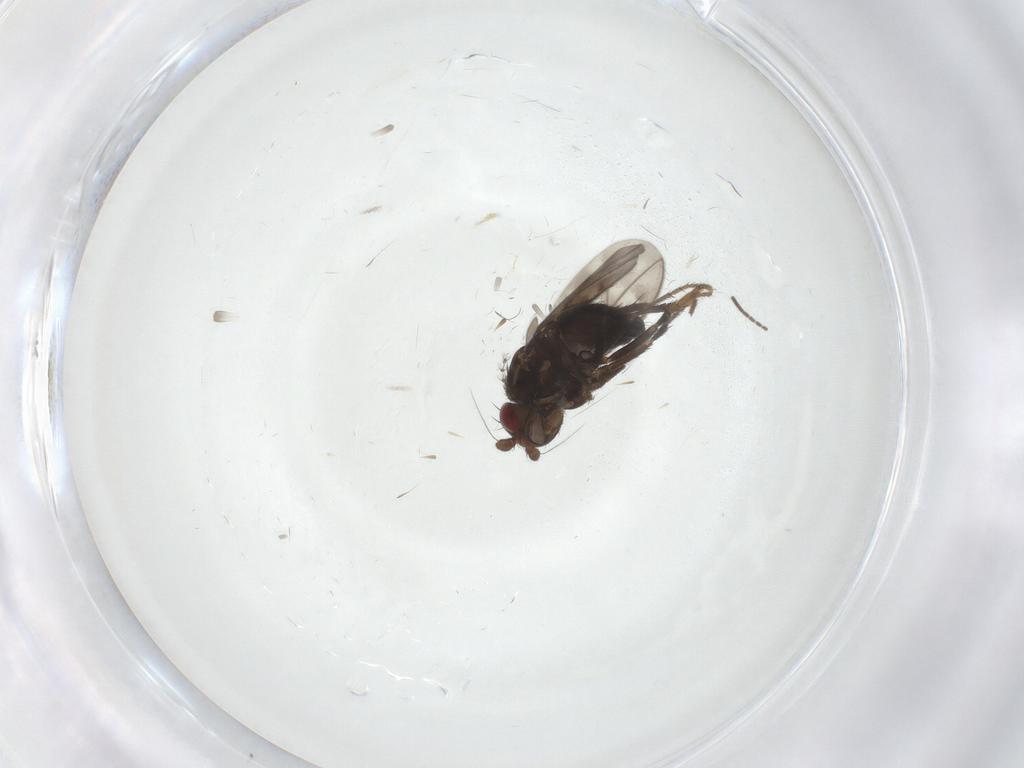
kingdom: Animalia
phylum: Arthropoda
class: Insecta
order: Diptera
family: Sphaeroceridae
